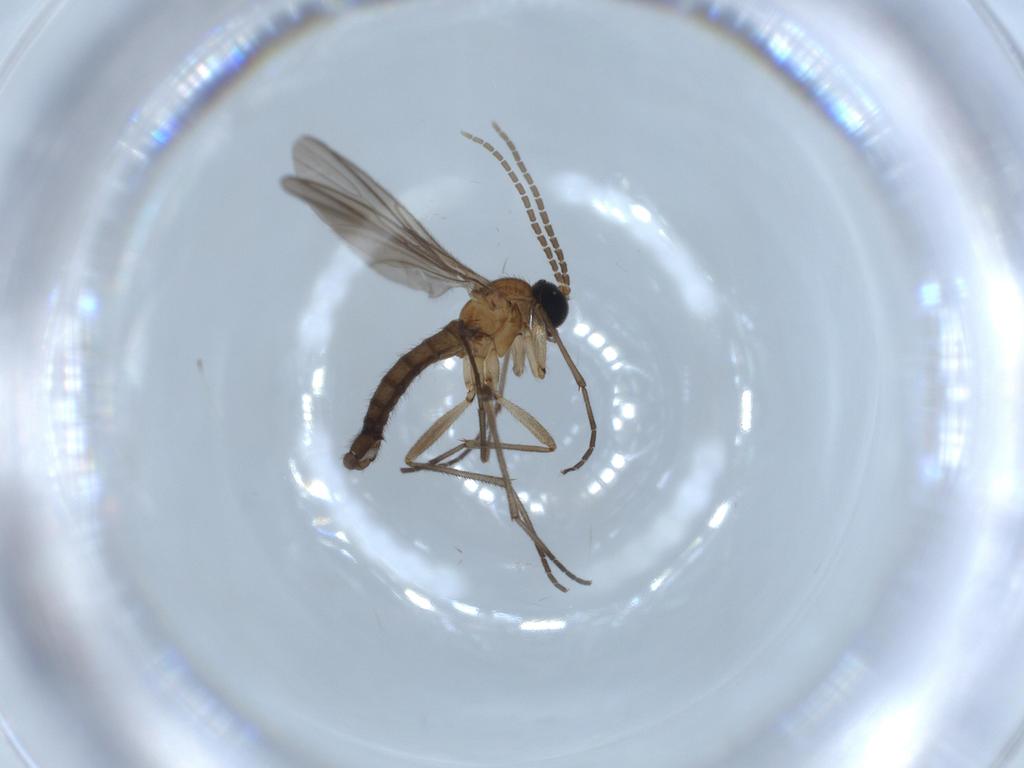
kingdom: Animalia
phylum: Arthropoda
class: Insecta
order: Diptera
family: Sciaridae
